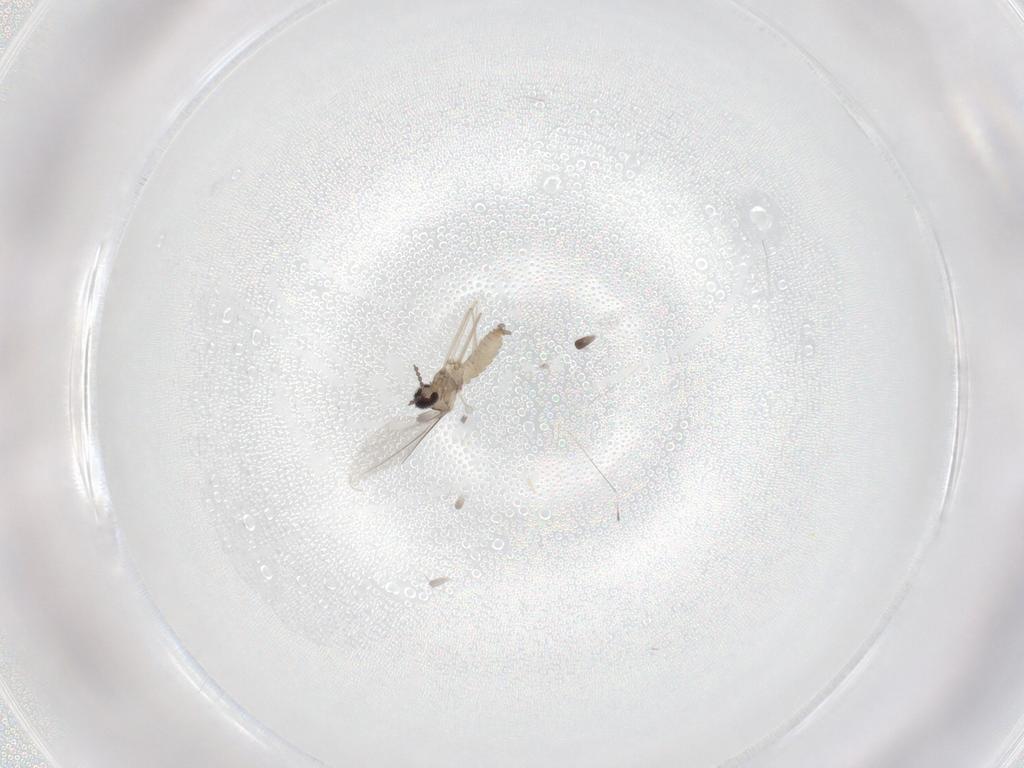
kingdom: Animalia
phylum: Arthropoda
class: Insecta
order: Diptera
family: Cecidomyiidae
